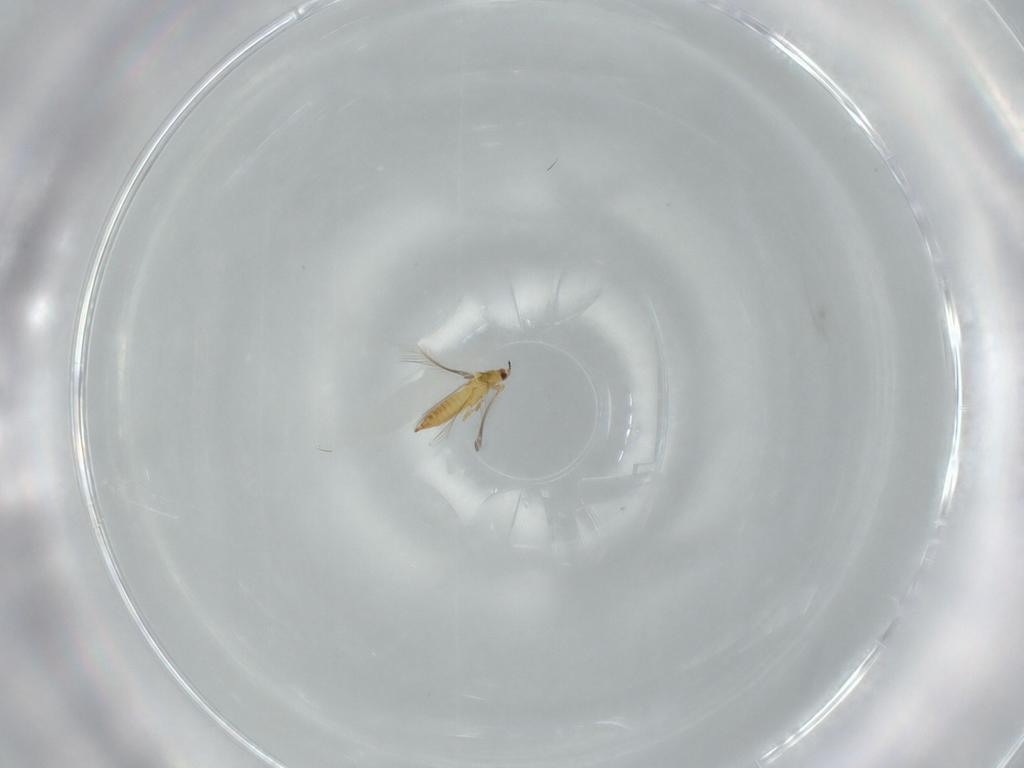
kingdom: Animalia
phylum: Arthropoda
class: Insecta
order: Thysanoptera
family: Thripidae
